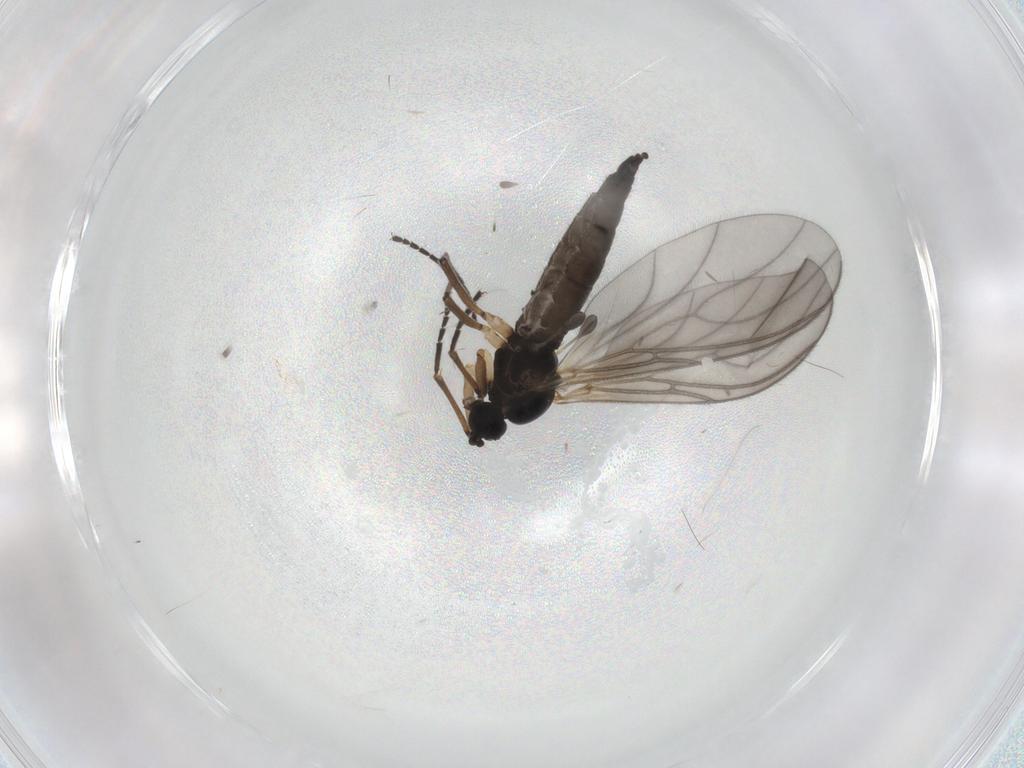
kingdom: Animalia
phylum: Arthropoda
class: Insecta
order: Diptera
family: Sciaridae
